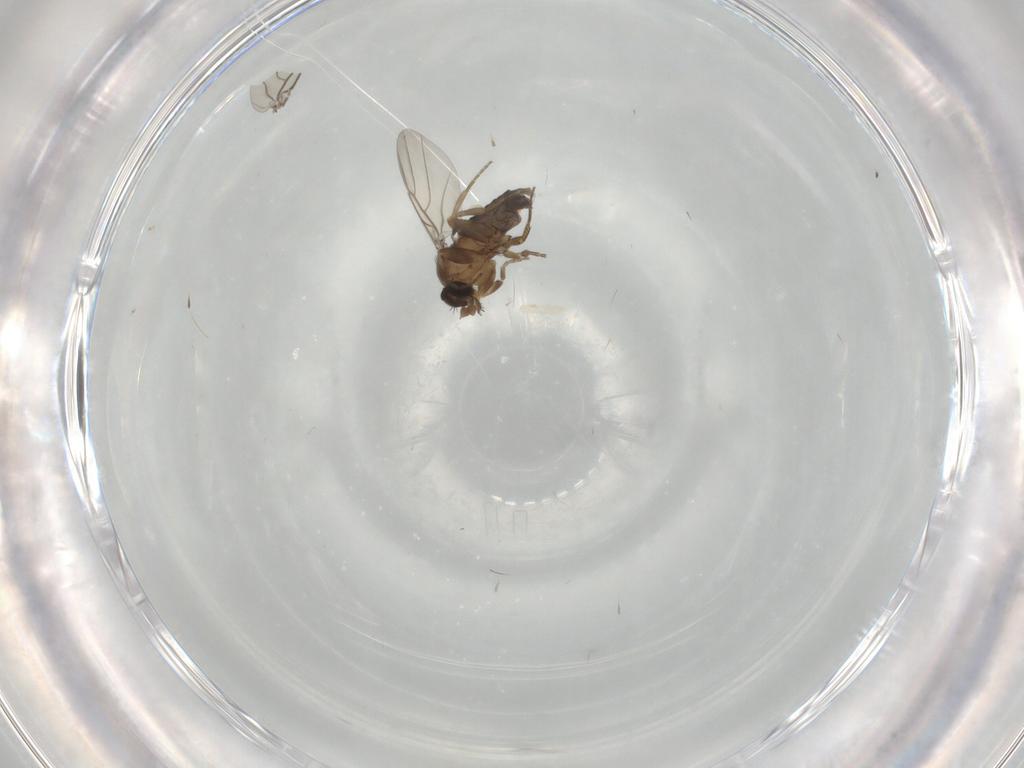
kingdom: Animalia
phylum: Arthropoda
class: Insecta
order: Diptera
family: Phoridae
